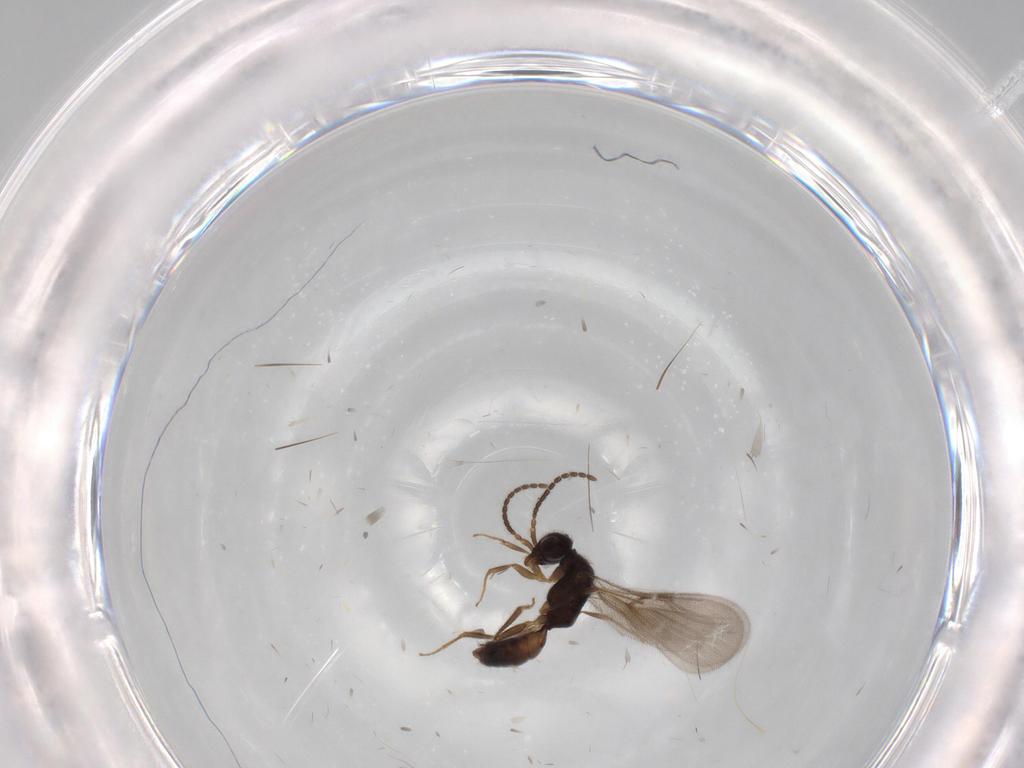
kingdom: Animalia
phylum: Arthropoda
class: Insecta
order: Hymenoptera
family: Bethylidae
